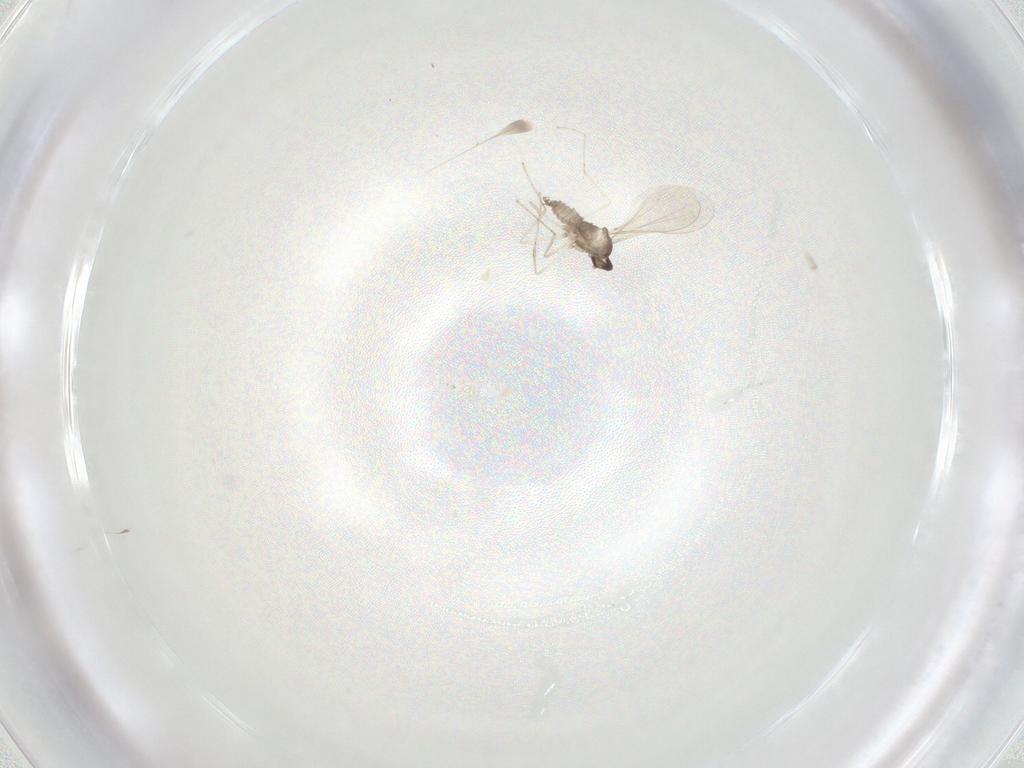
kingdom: Animalia
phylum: Arthropoda
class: Insecta
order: Diptera
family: Phoridae
